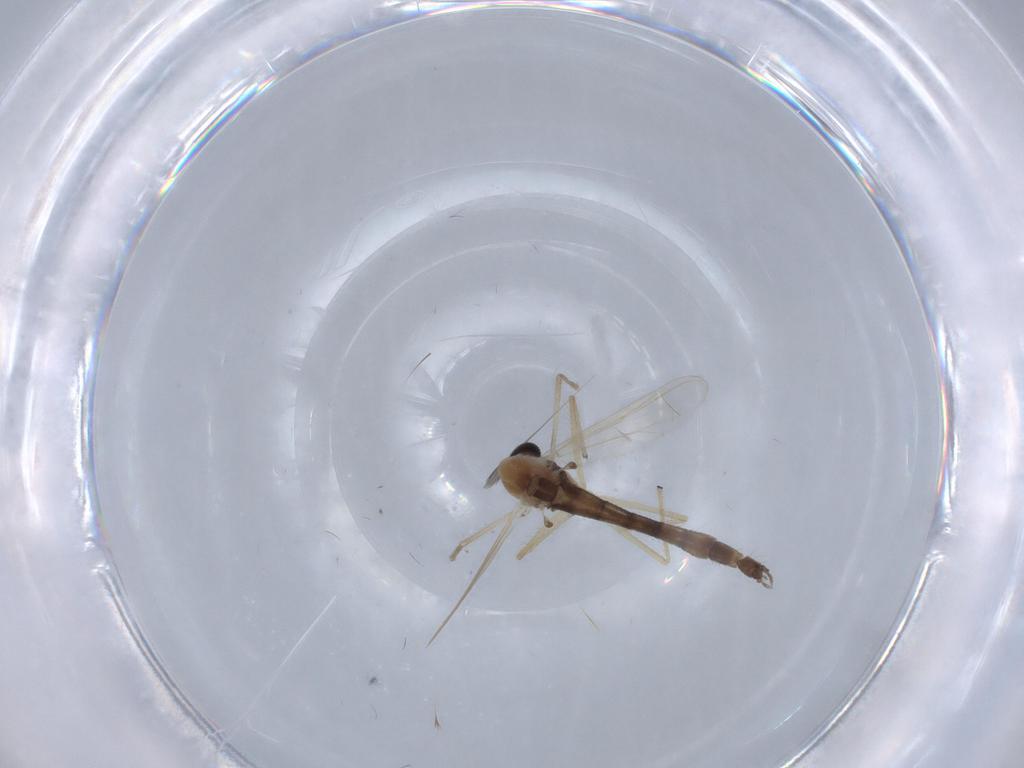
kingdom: Animalia
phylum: Arthropoda
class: Insecta
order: Diptera
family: Chironomidae
